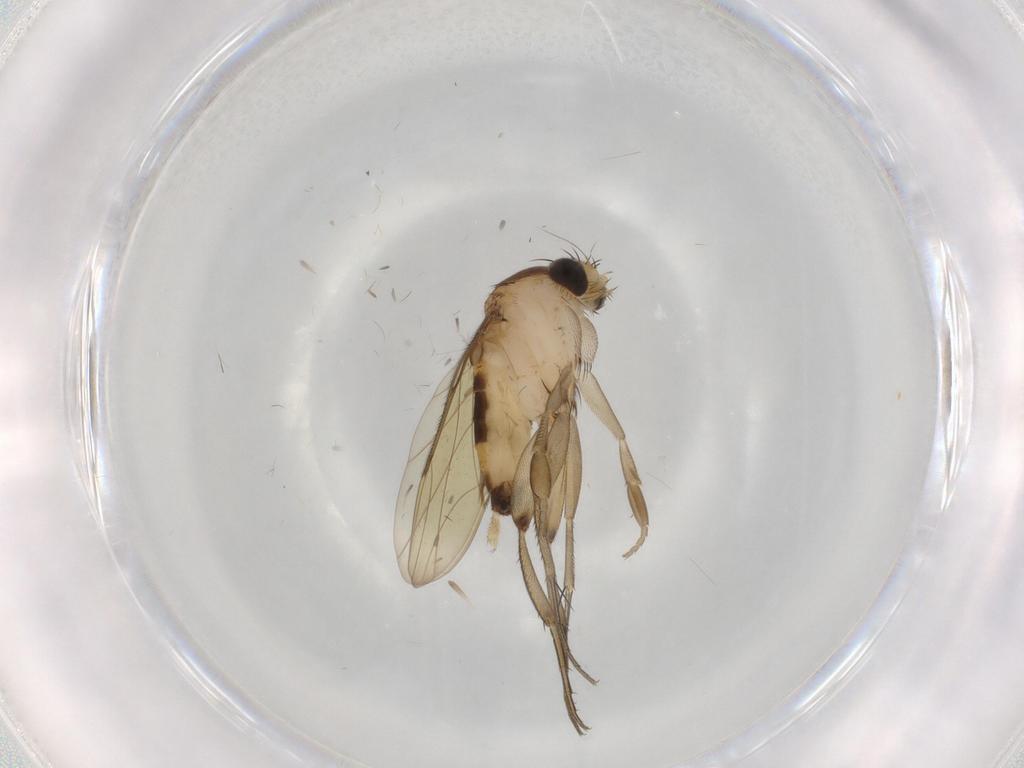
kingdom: Animalia
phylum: Arthropoda
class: Insecta
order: Diptera
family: Phoridae
